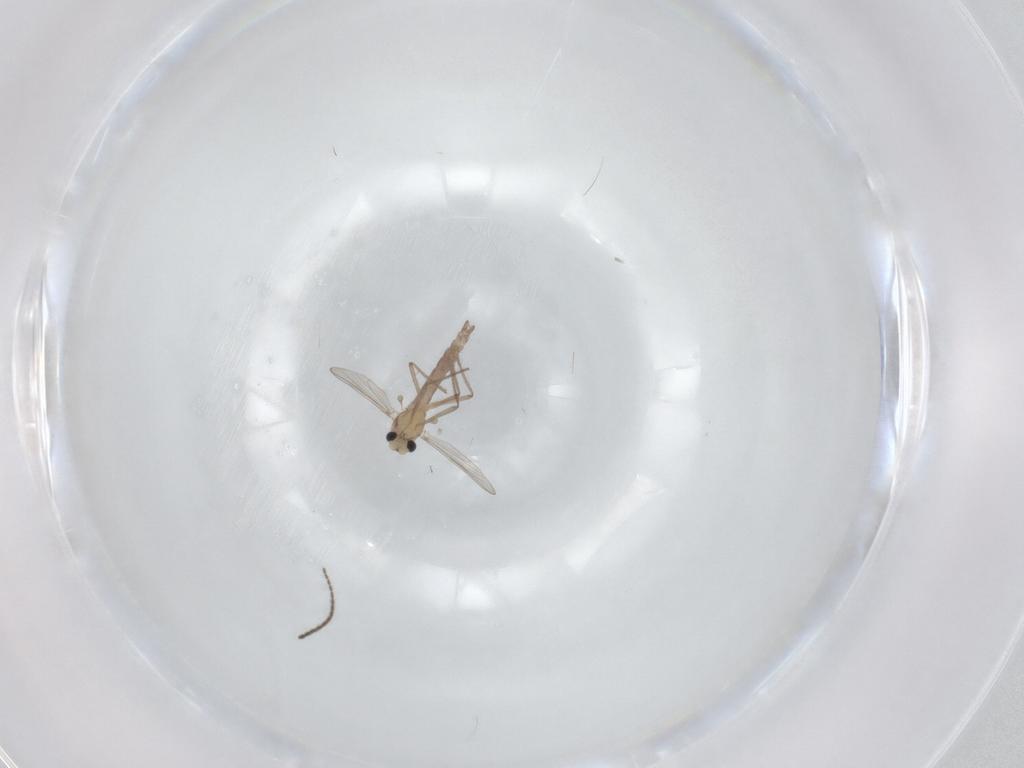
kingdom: Animalia
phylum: Arthropoda
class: Insecta
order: Diptera
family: Chironomidae
